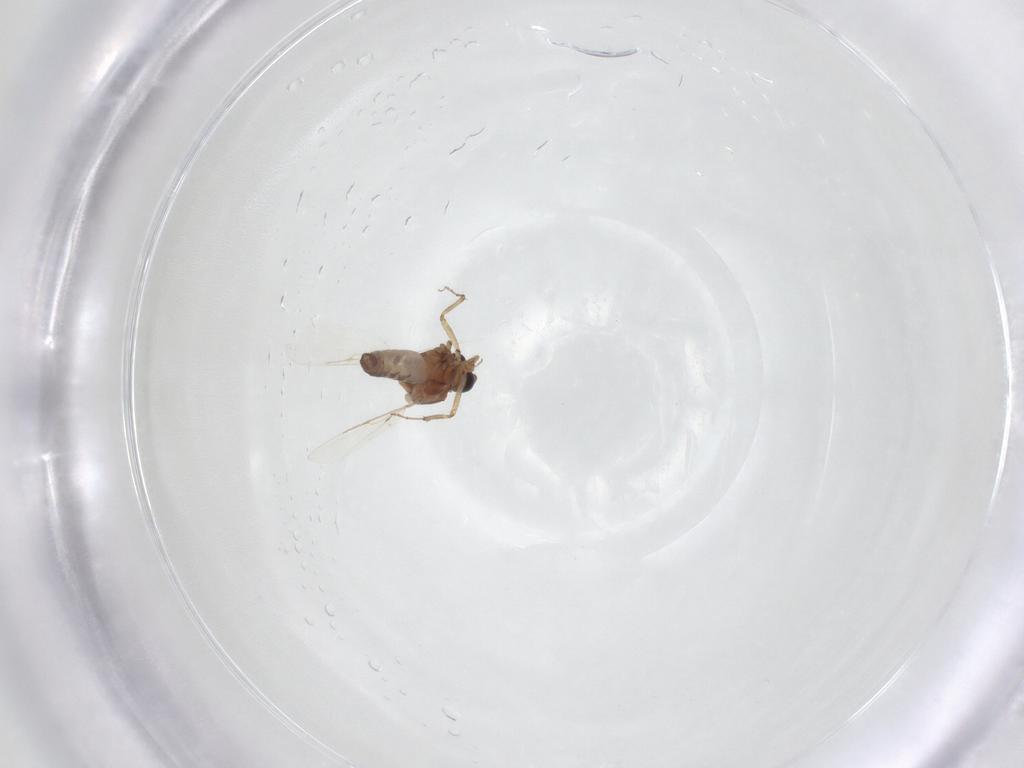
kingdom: Animalia
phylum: Arthropoda
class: Insecta
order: Diptera
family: Ceratopogonidae
